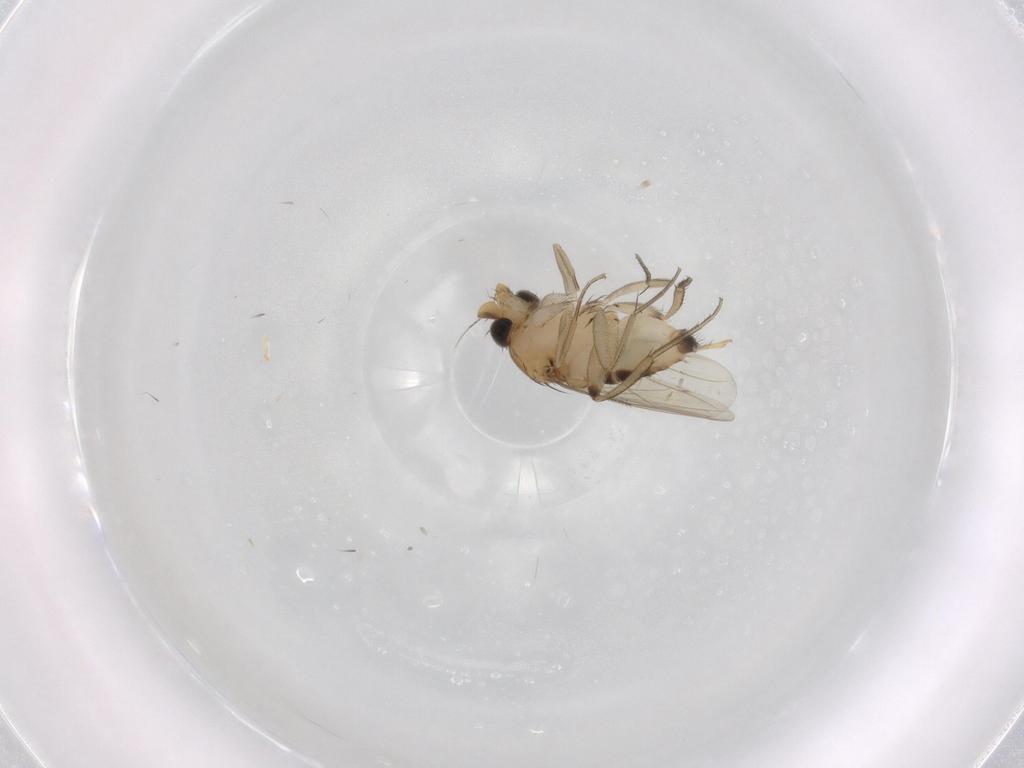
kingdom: Animalia
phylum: Arthropoda
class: Insecta
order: Diptera
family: Phoridae
